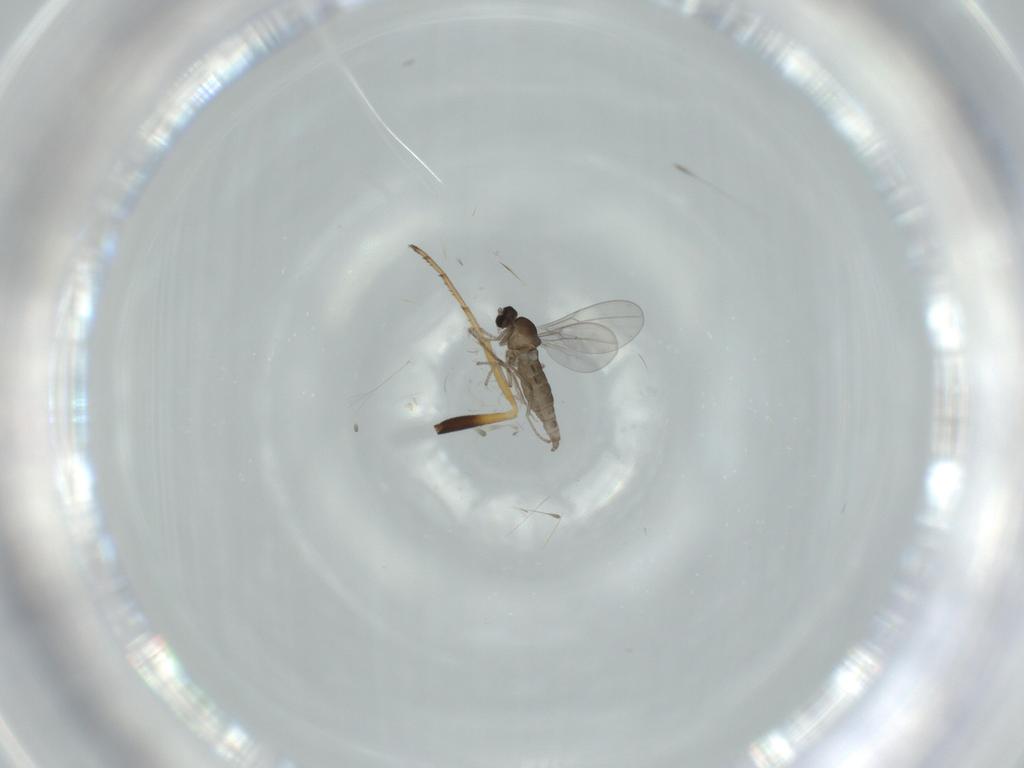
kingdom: Animalia
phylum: Arthropoda
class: Insecta
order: Diptera
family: Dolichopodidae
